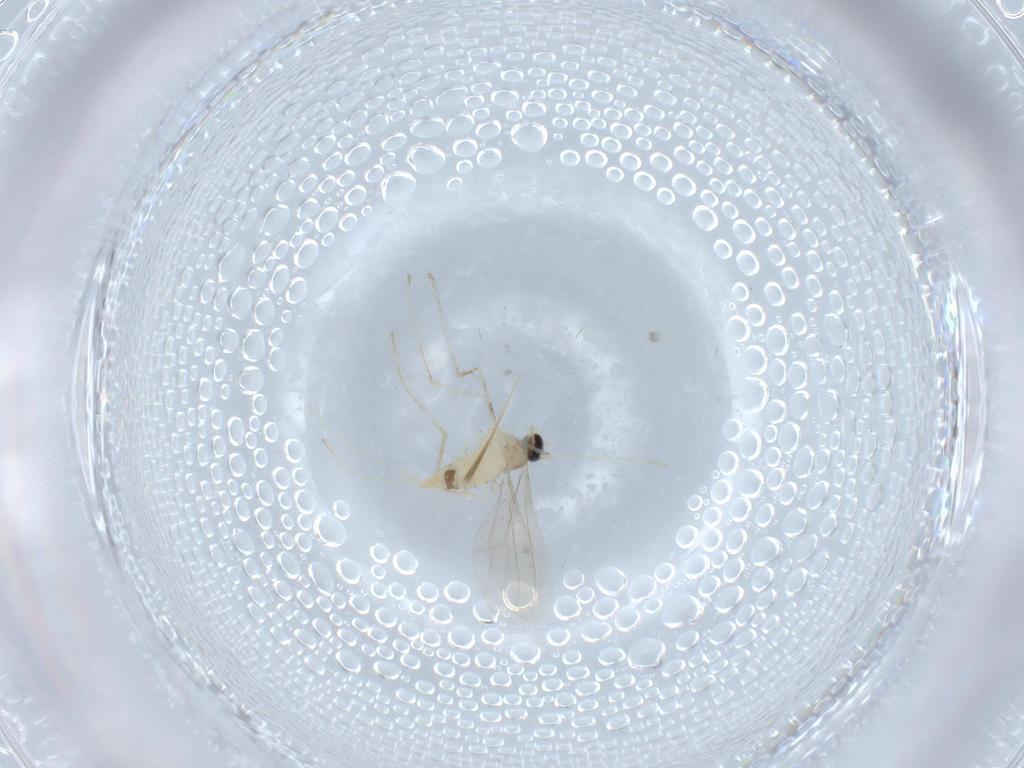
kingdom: Animalia
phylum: Arthropoda
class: Insecta
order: Diptera
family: Cecidomyiidae
